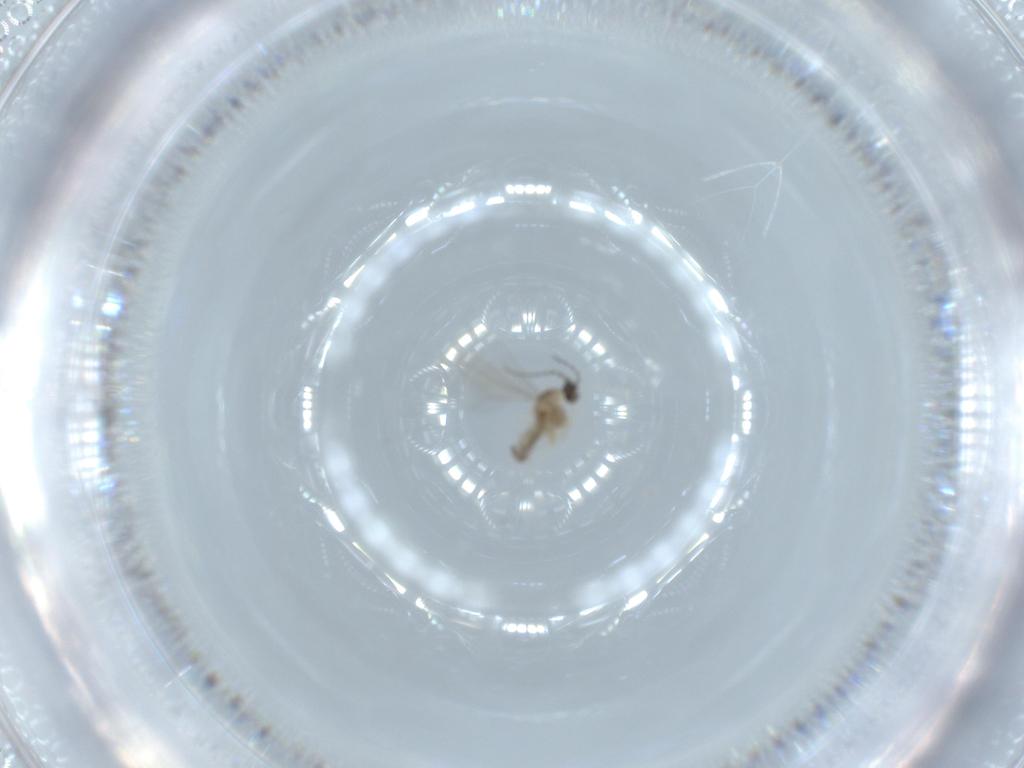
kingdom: Animalia
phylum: Arthropoda
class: Insecta
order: Diptera
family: Cecidomyiidae
